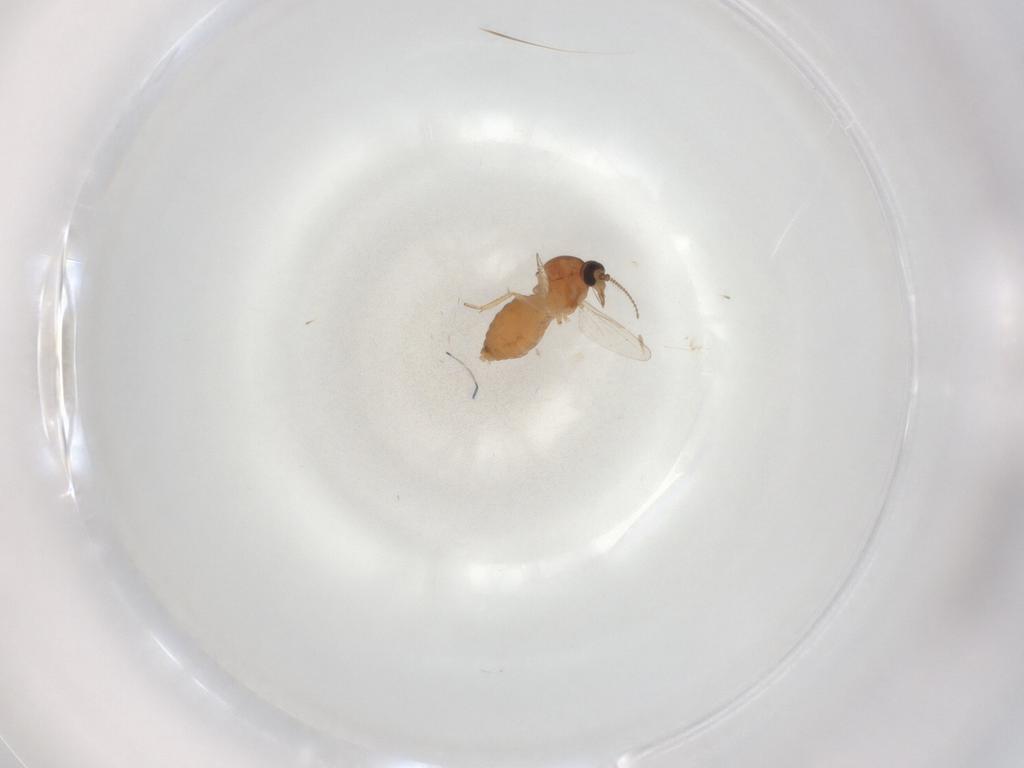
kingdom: Animalia
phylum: Arthropoda
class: Insecta
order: Diptera
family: Ceratopogonidae
